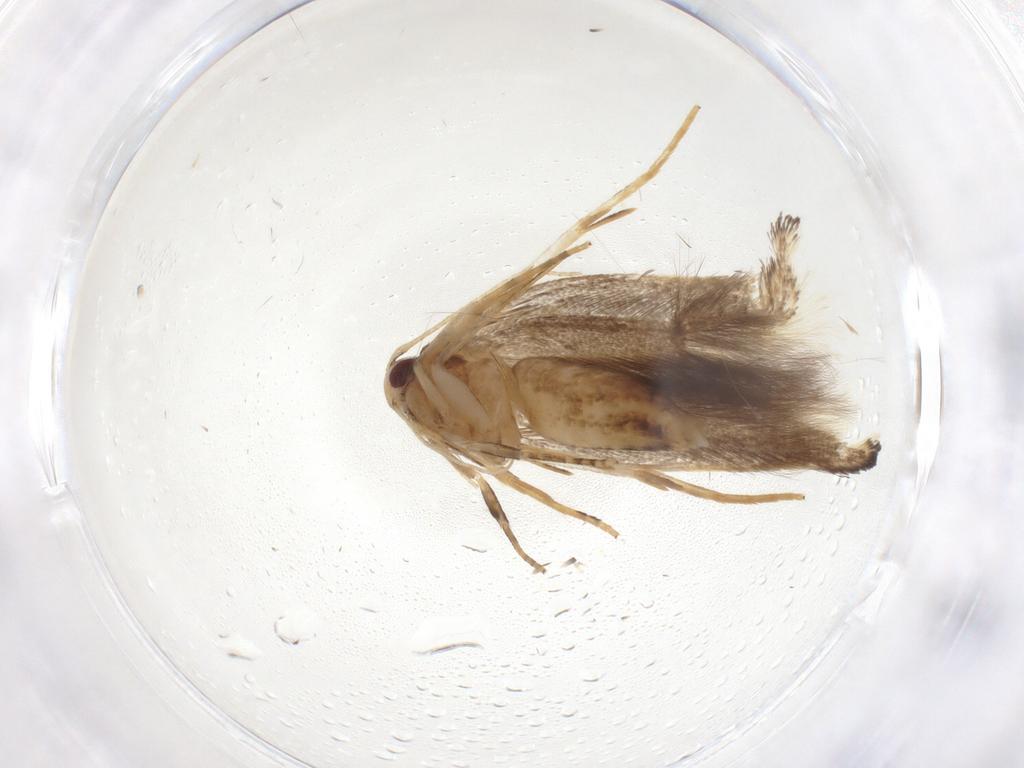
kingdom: Animalia
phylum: Arthropoda
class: Insecta
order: Lepidoptera
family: Cosmopterigidae
